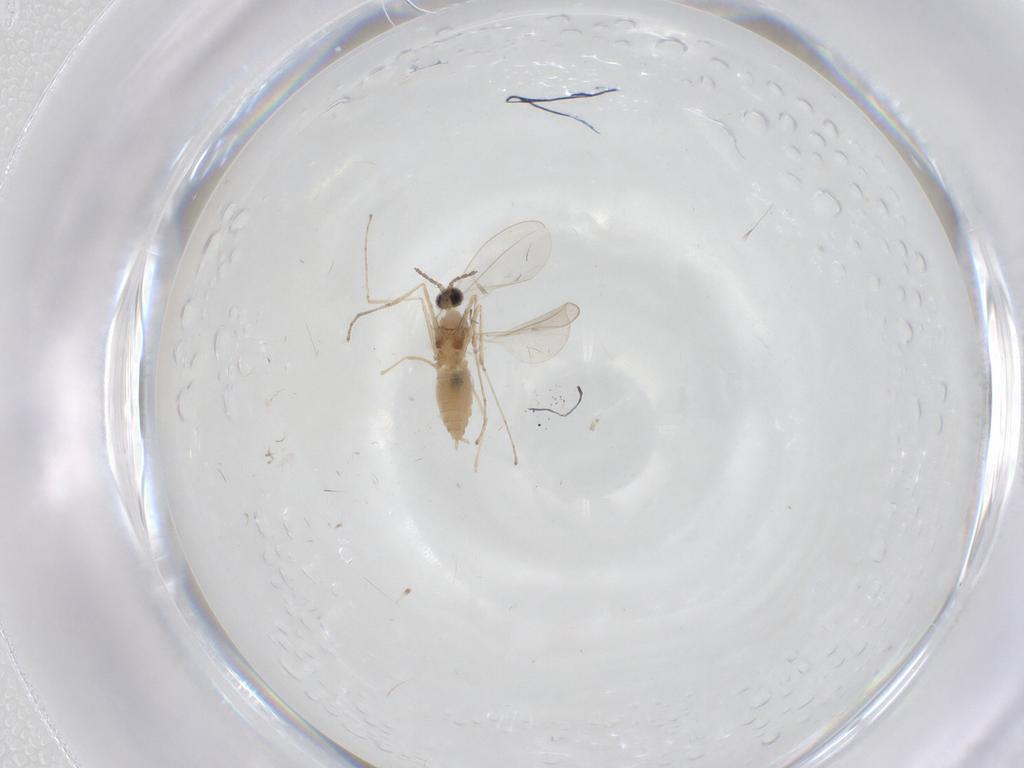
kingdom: Animalia
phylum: Arthropoda
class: Insecta
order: Diptera
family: Cecidomyiidae
